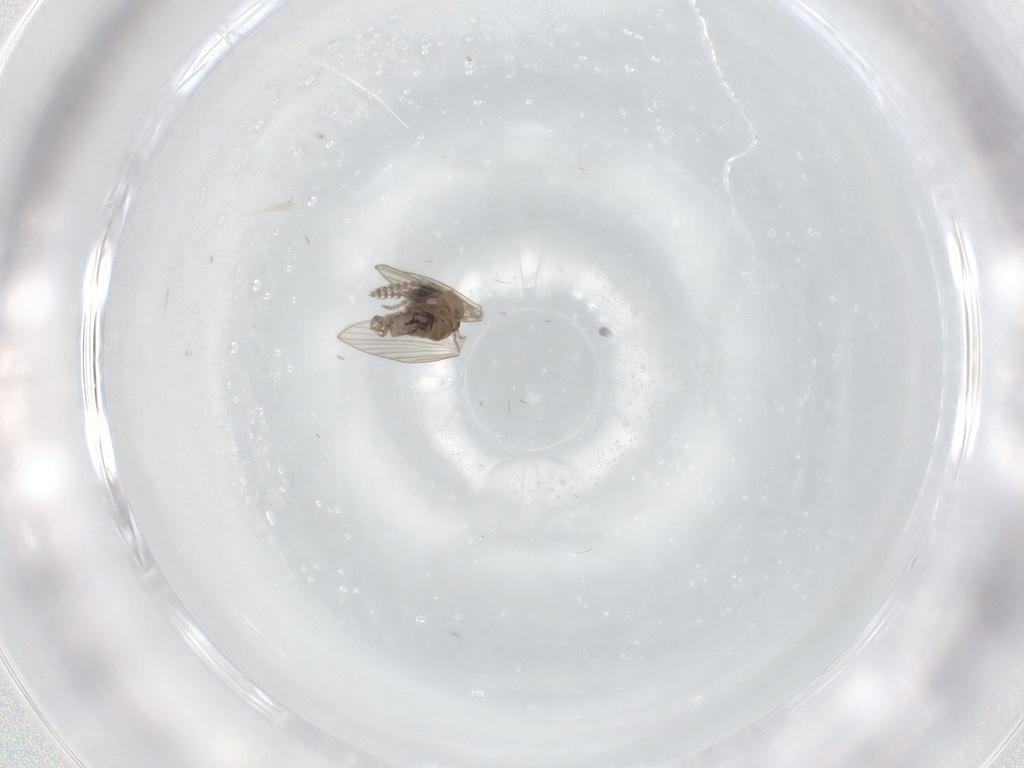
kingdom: Animalia
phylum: Arthropoda
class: Insecta
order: Diptera
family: Psychodidae
